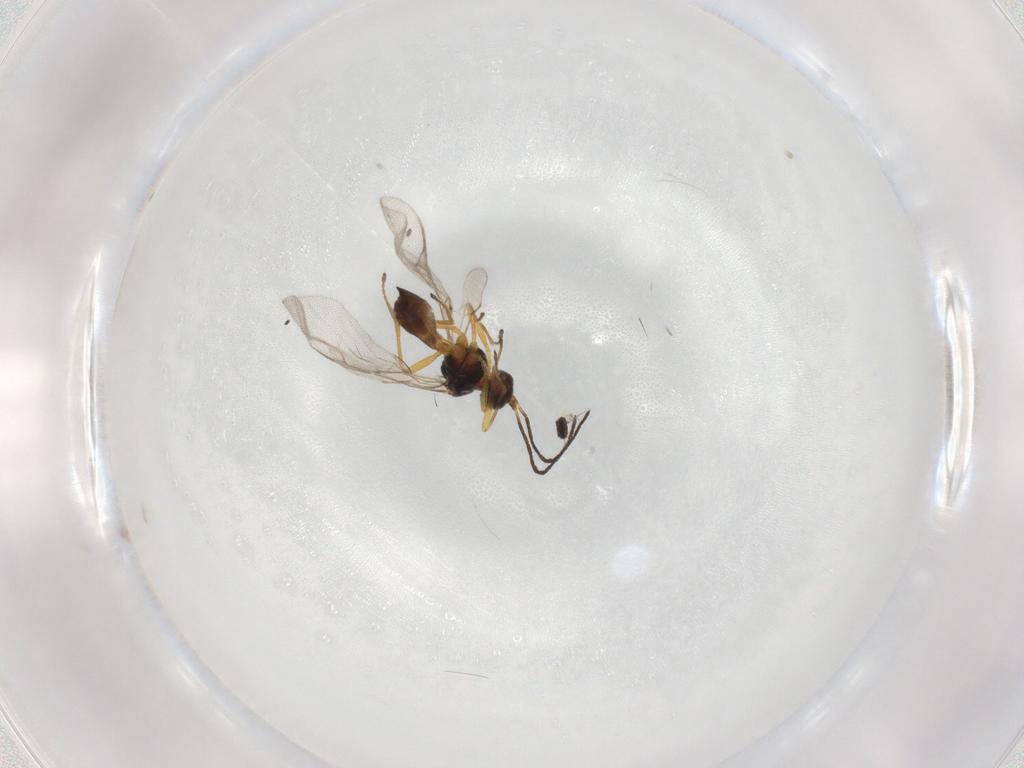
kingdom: Animalia
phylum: Arthropoda
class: Insecta
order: Hymenoptera
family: Braconidae
